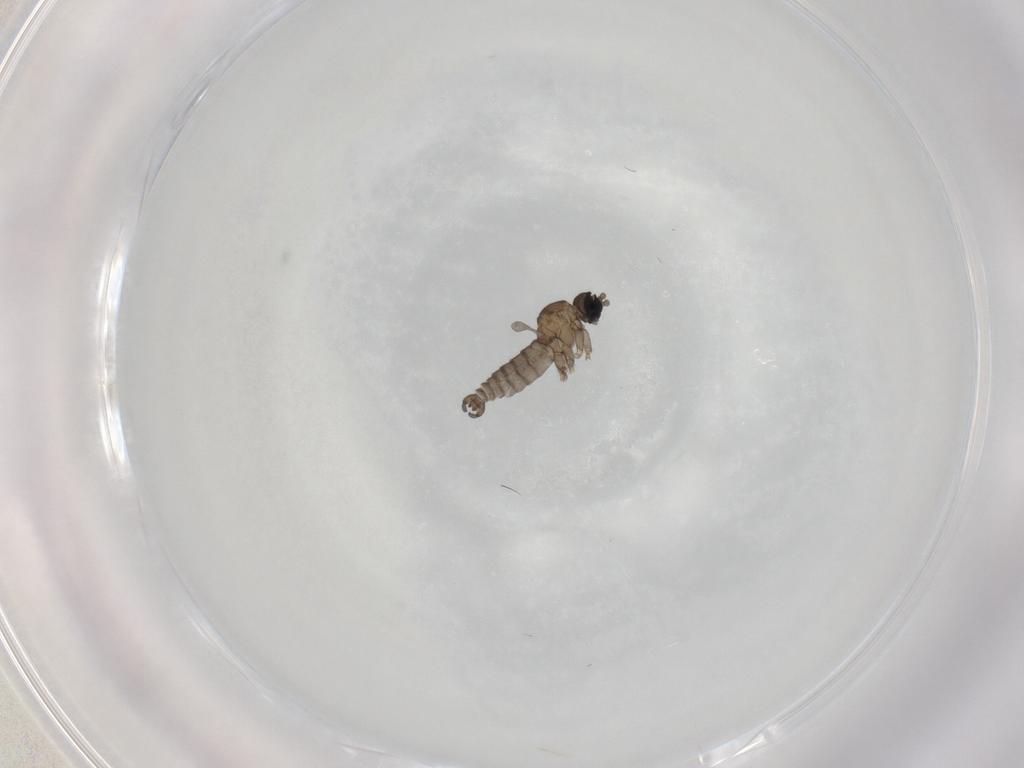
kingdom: Animalia
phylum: Arthropoda
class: Insecta
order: Diptera
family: Sciaridae
